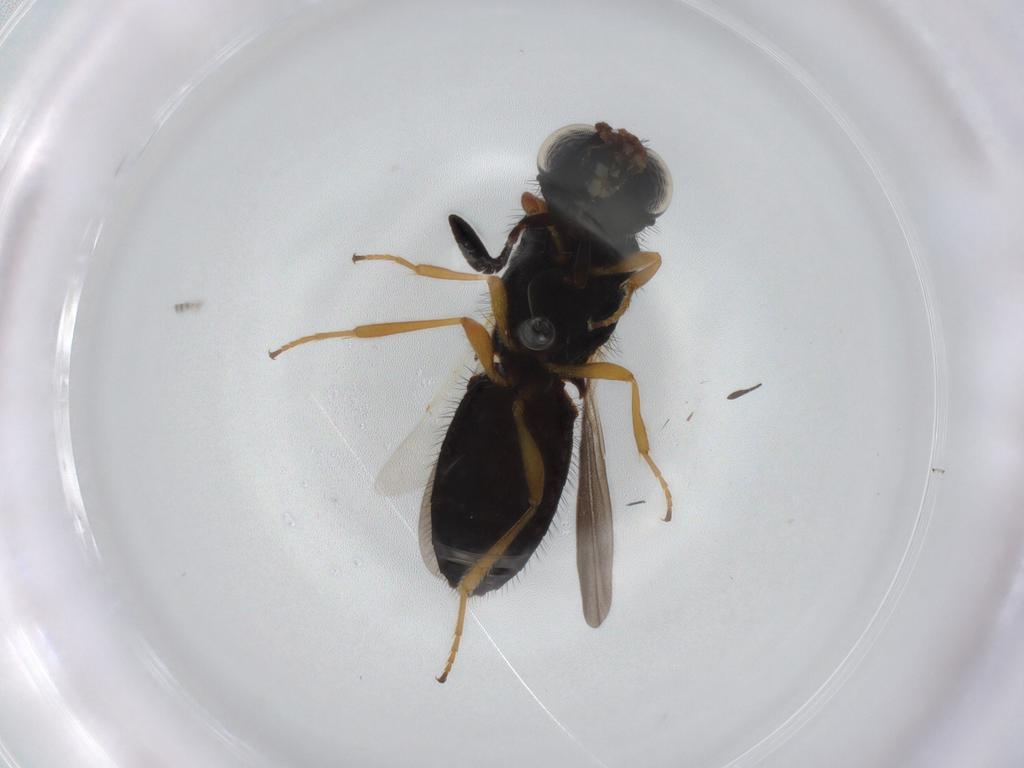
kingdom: Animalia
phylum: Arthropoda
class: Insecta
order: Hymenoptera
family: Scelionidae
